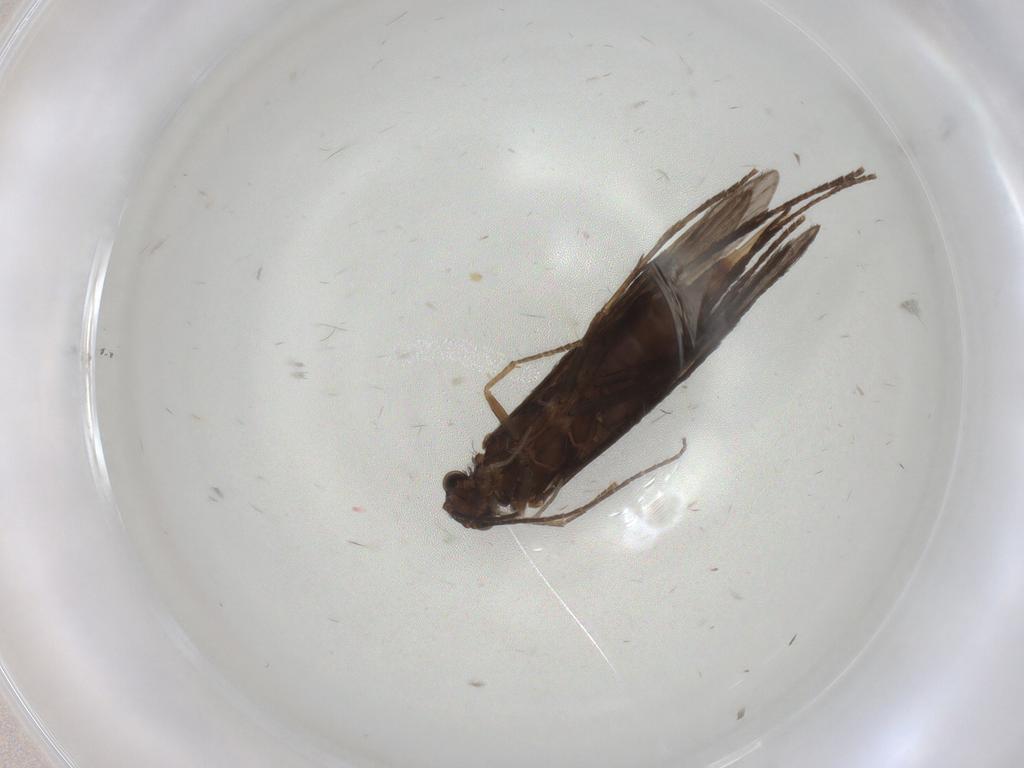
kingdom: Animalia
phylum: Arthropoda
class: Insecta
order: Trichoptera
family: Xiphocentronidae
